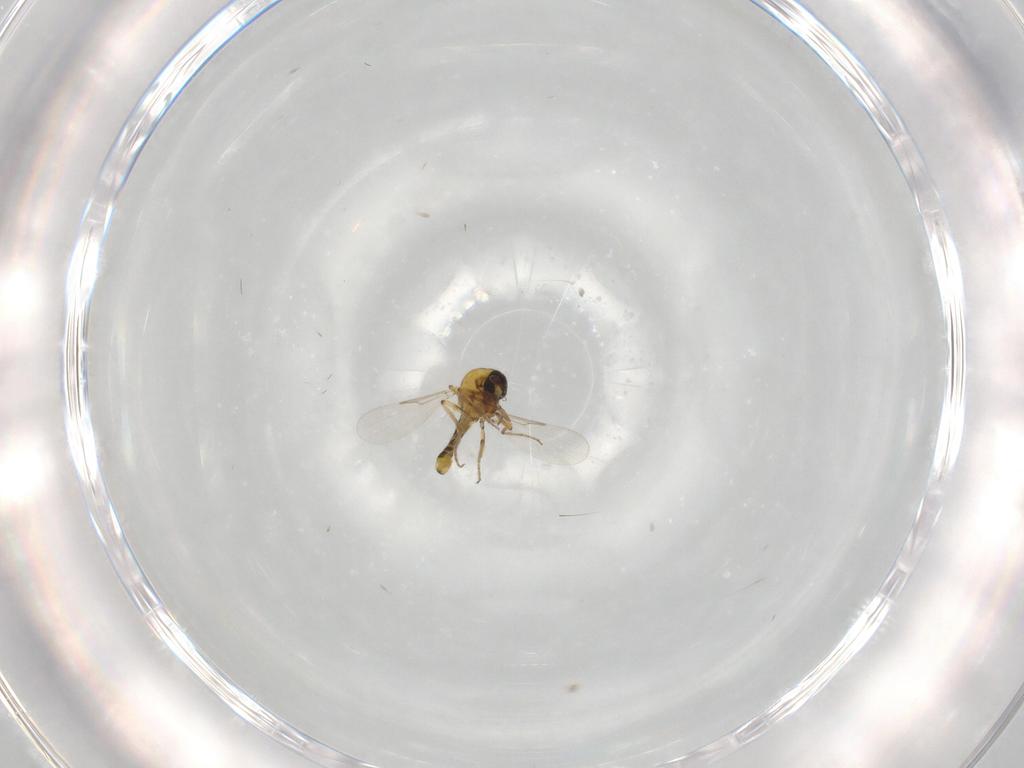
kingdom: Animalia
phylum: Arthropoda
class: Insecta
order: Diptera
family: Ceratopogonidae
